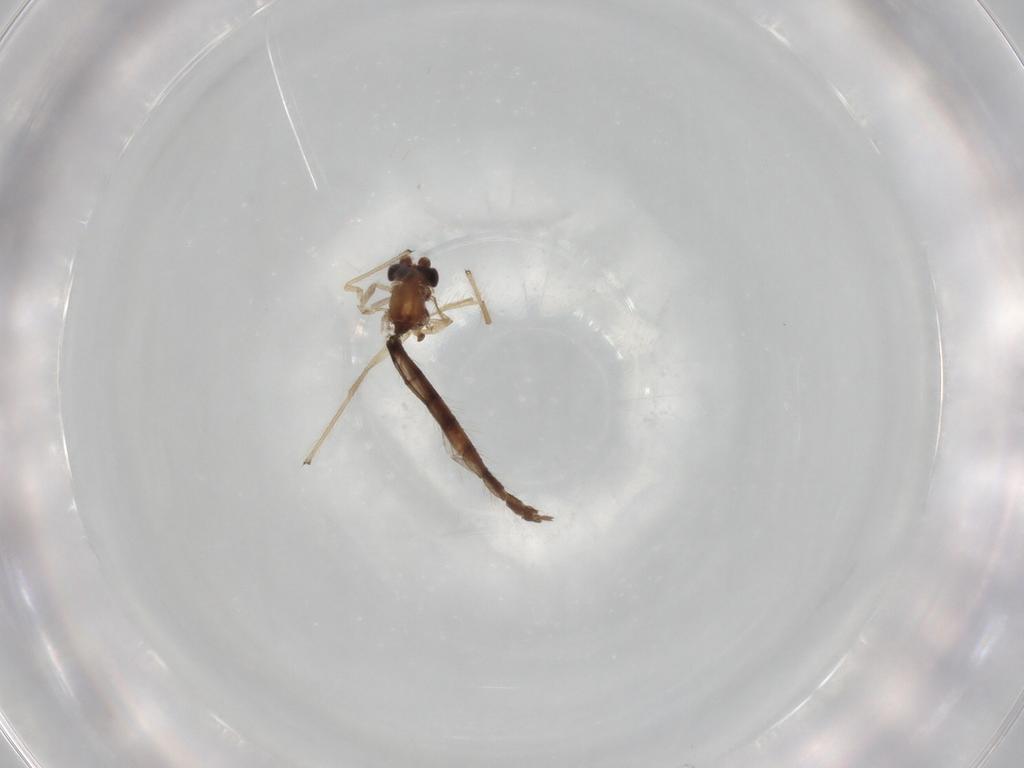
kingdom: Animalia
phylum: Arthropoda
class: Insecta
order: Diptera
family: Chironomidae
